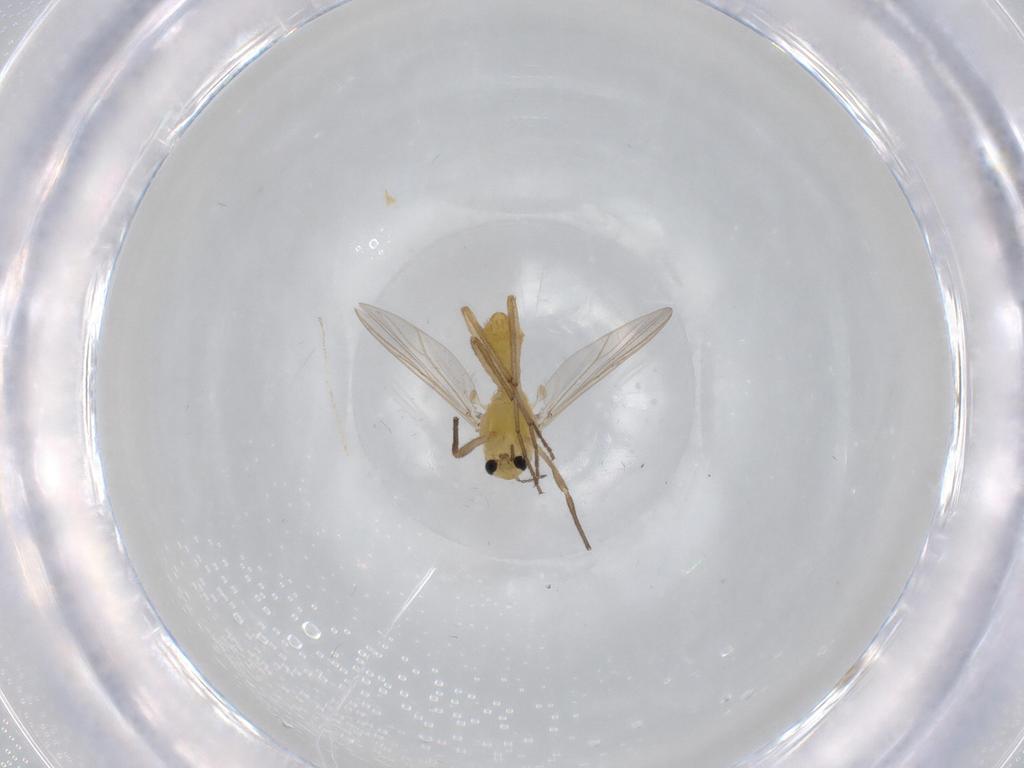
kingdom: Animalia
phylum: Arthropoda
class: Insecta
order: Diptera
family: Cecidomyiidae
